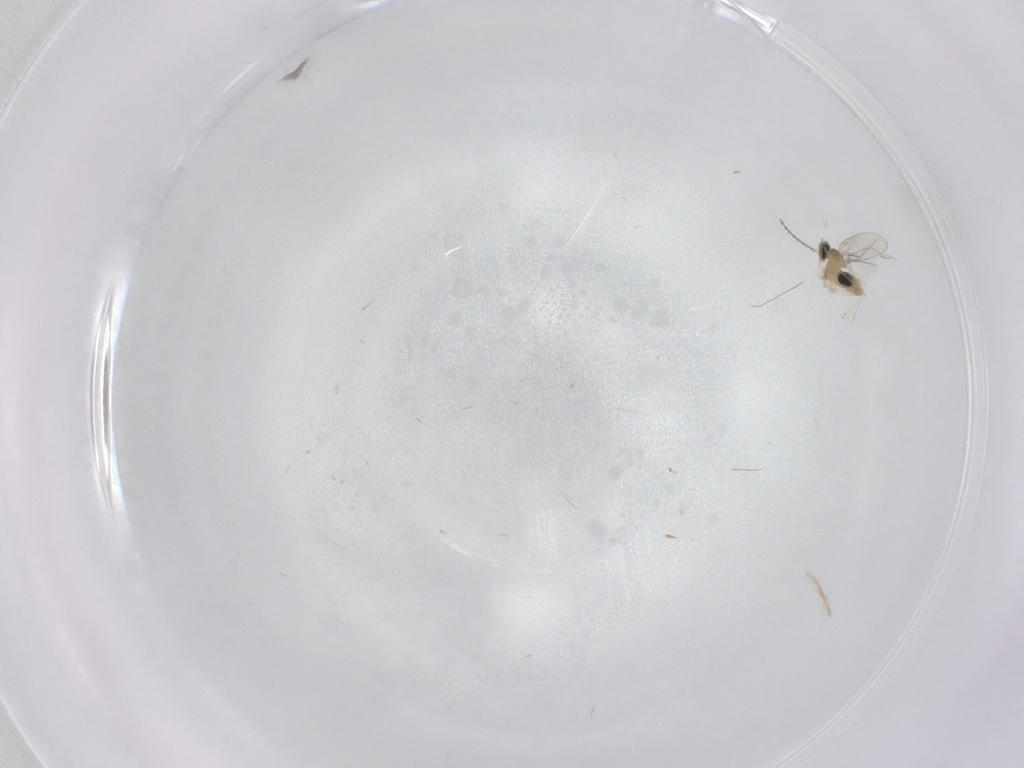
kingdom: Animalia
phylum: Arthropoda
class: Insecta
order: Diptera
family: Cecidomyiidae
